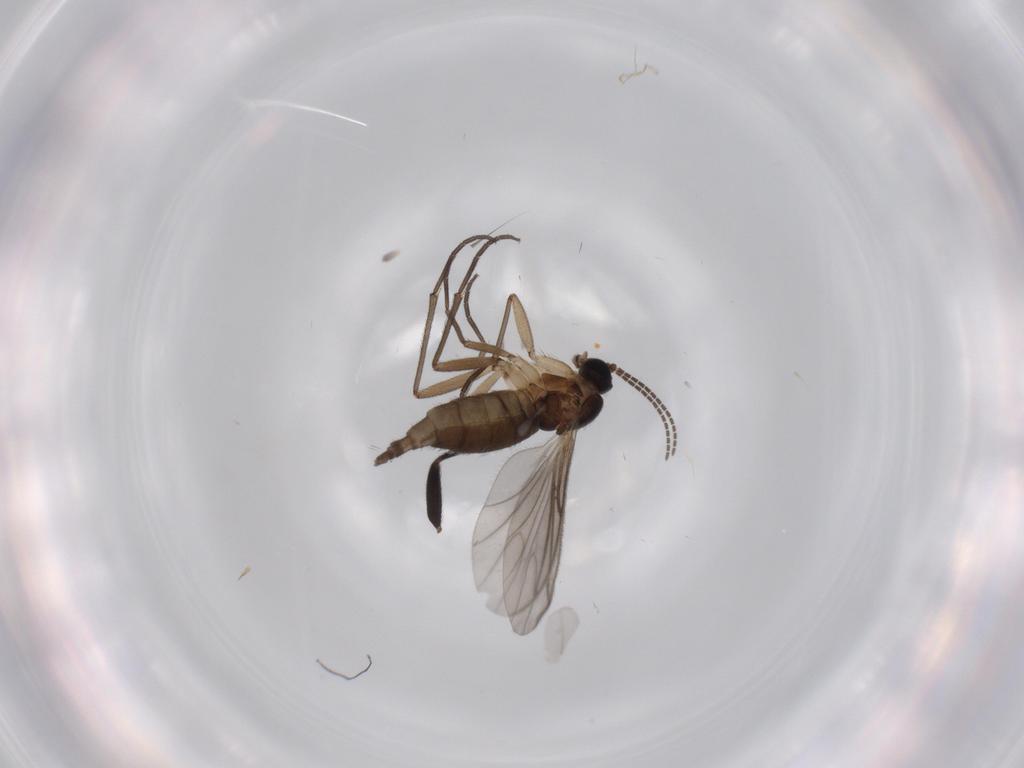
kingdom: Animalia
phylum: Arthropoda
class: Insecta
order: Diptera
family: Sciaridae
